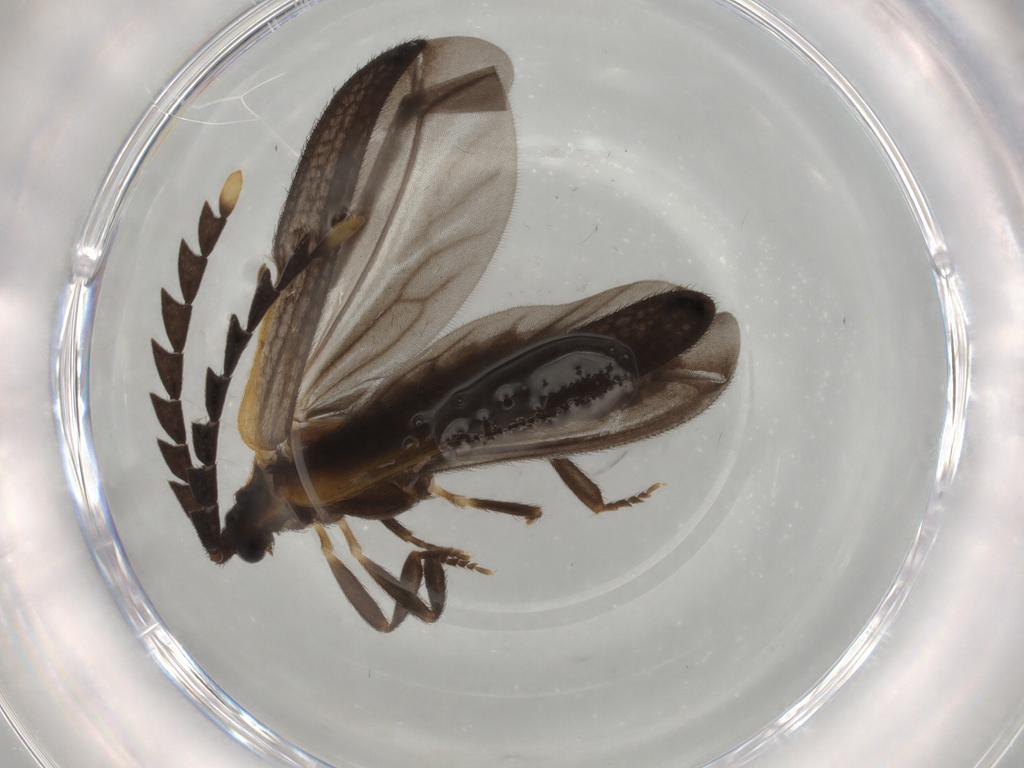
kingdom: Animalia
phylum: Arthropoda
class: Insecta
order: Coleoptera
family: Lycidae
